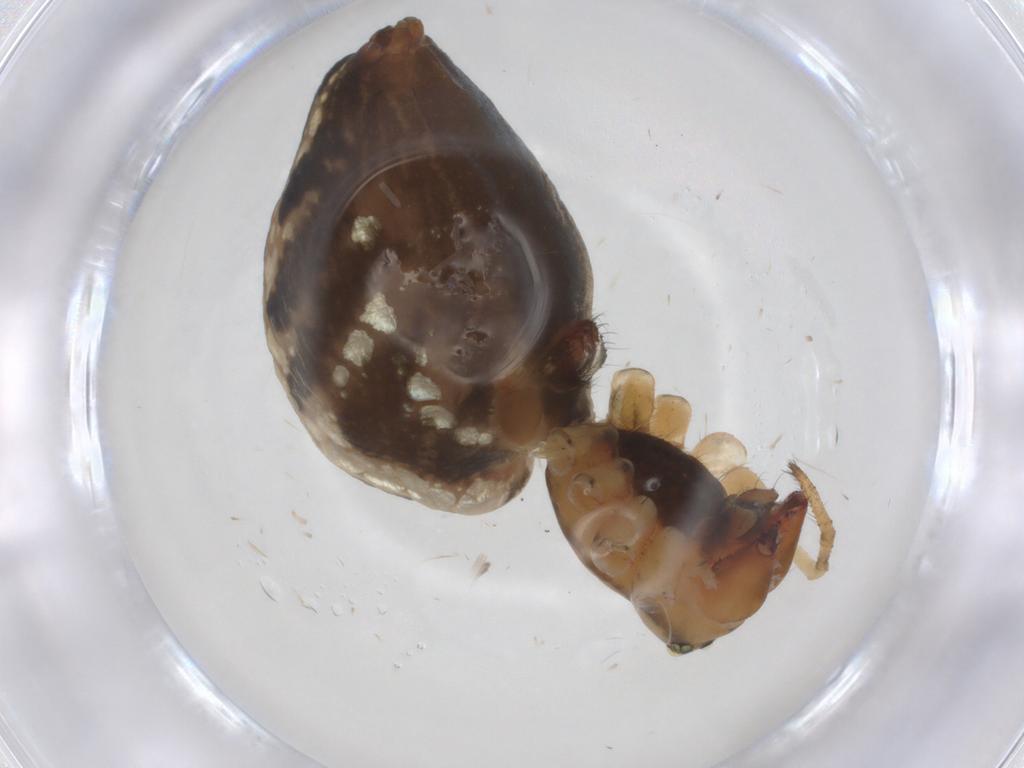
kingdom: Animalia
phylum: Arthropoda
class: Arachnida
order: Araneae
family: Linyphiidae
